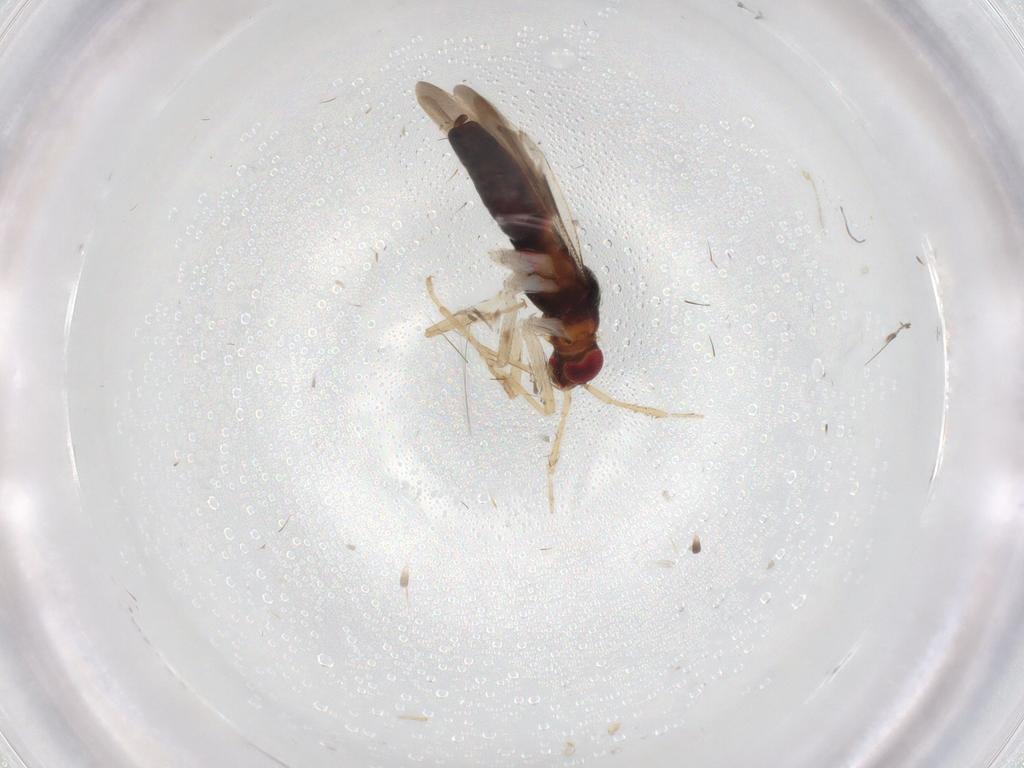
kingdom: Animalia
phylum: Arthropoda
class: Insecta
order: Hemiptera
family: Miridae
